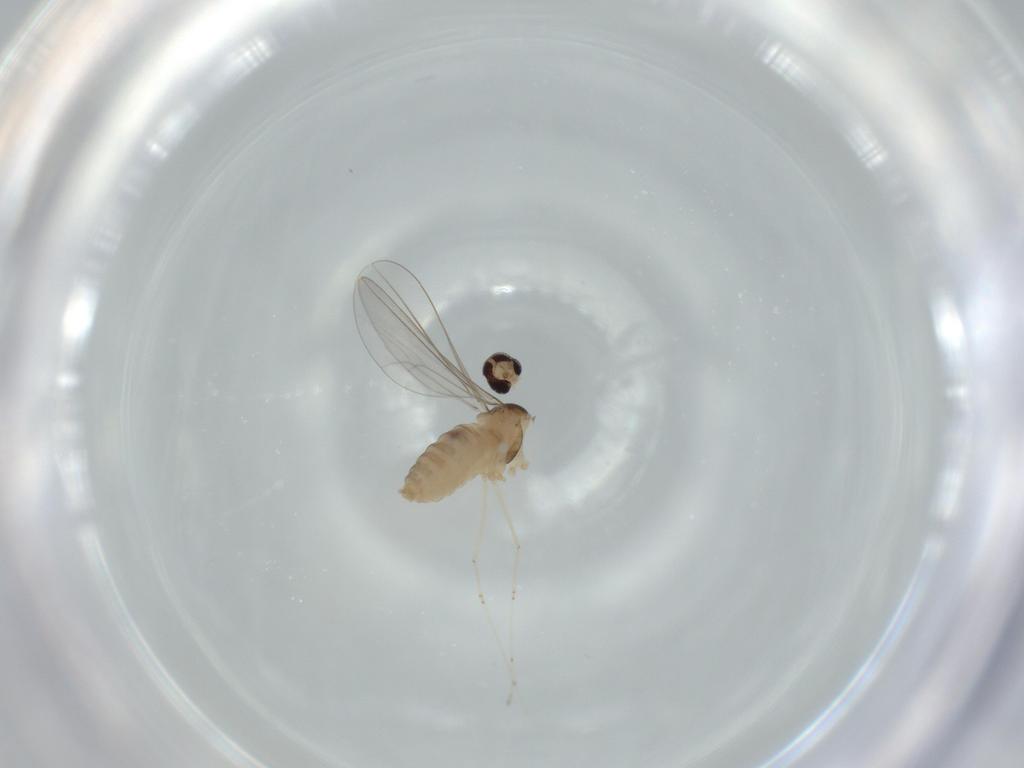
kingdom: Animalia
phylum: Arthropoda
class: Insecta
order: Diptera
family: Cecidomyiidae
